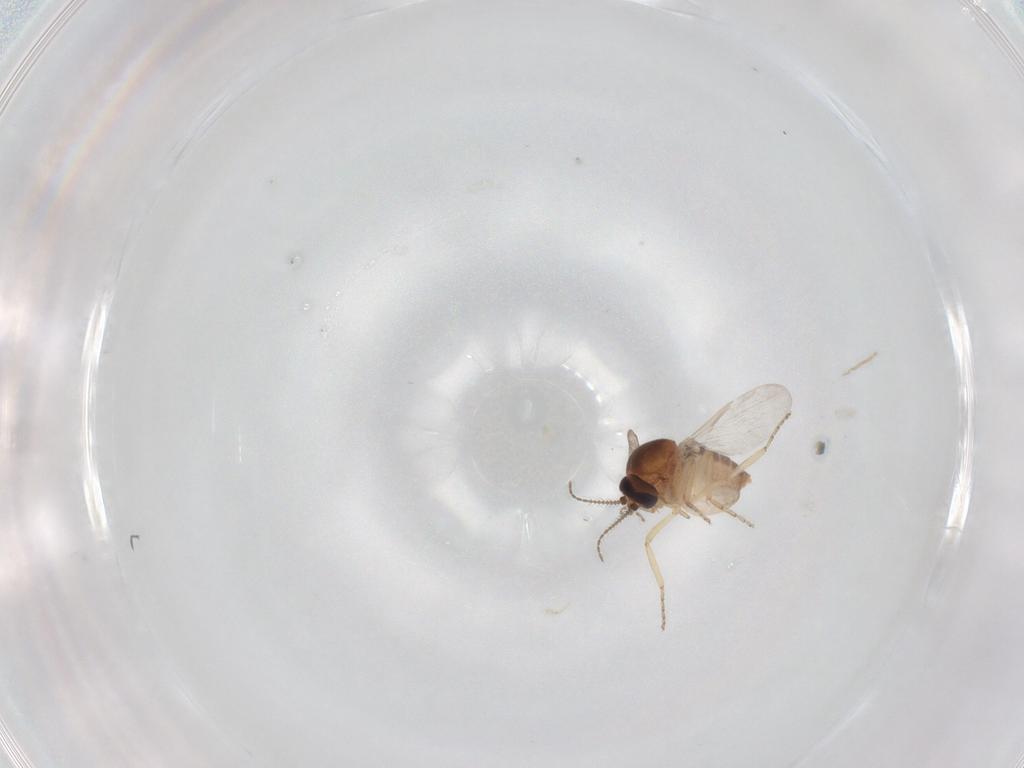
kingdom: Animalia
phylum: Arthropoda
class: Insecta
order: Diptera
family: Ceratopogonidae
